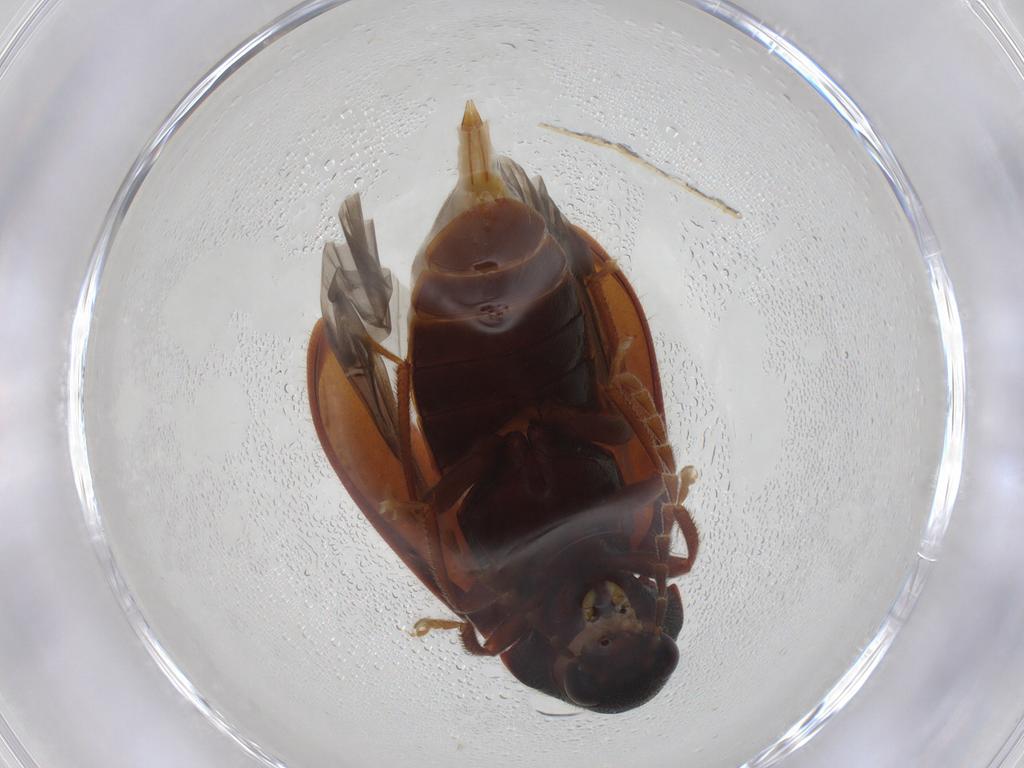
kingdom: Animalia
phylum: Arthropoda
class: Insecta
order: Coleoptera
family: Ptilodactylidae
